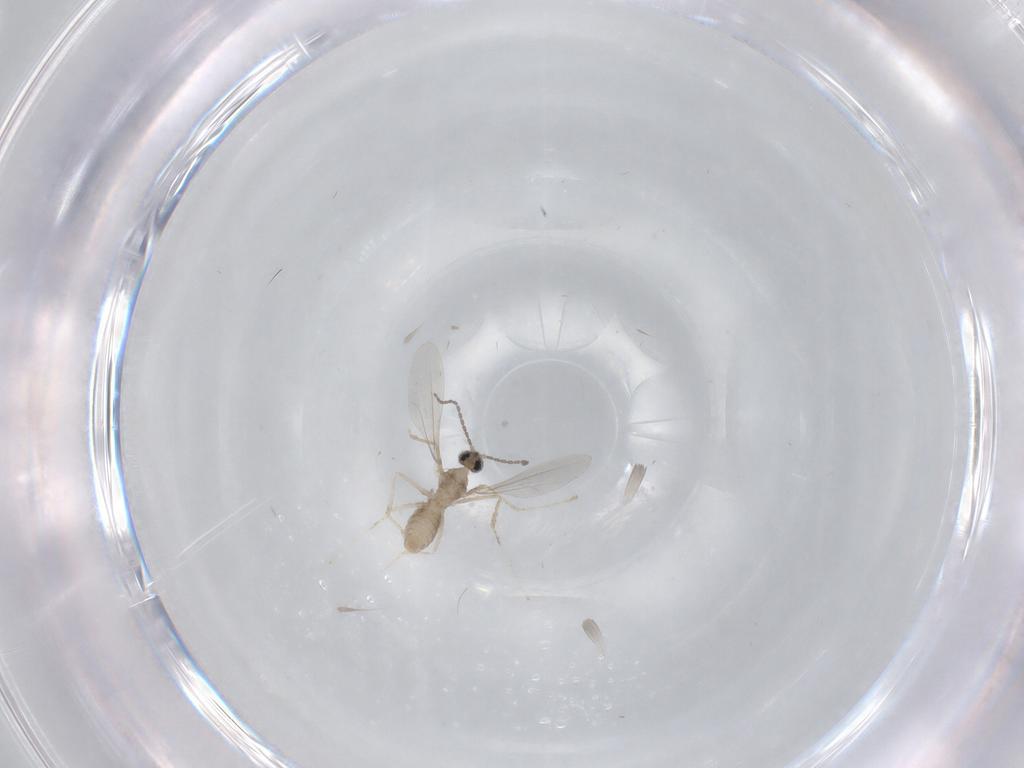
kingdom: Animalia
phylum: Arthropoda
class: Insecta
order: Diptera
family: Cecidomyiidae
